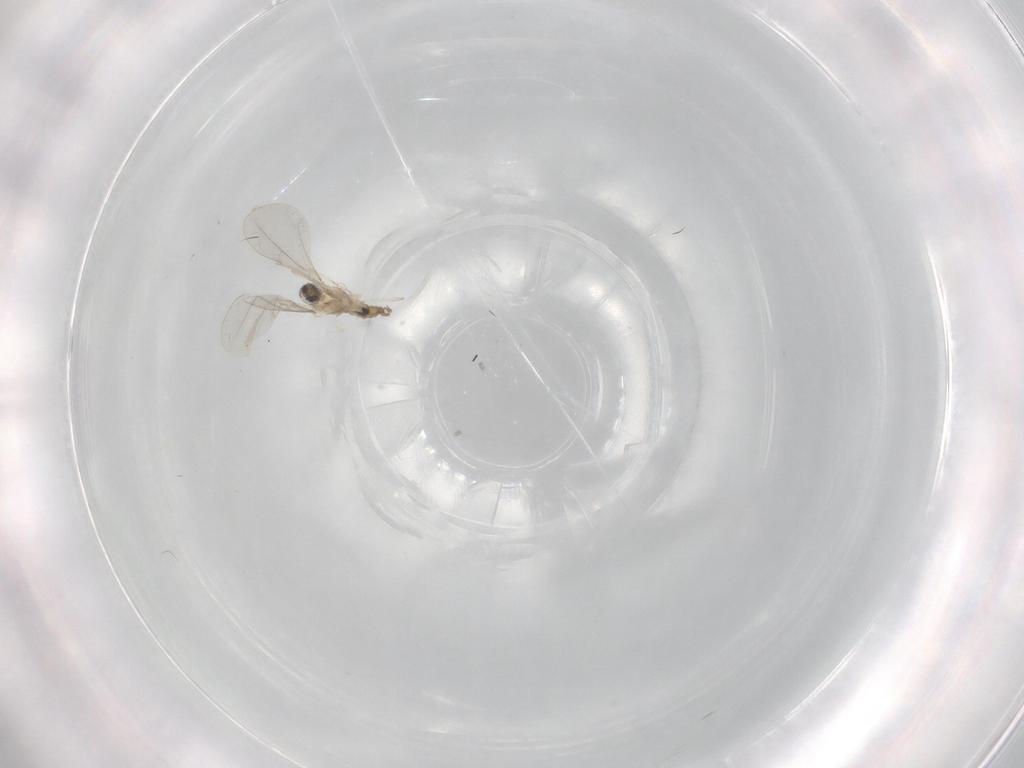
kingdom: Animalia
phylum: Arthropoda
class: Insecta
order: Diptera
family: Cecidomyiidae
